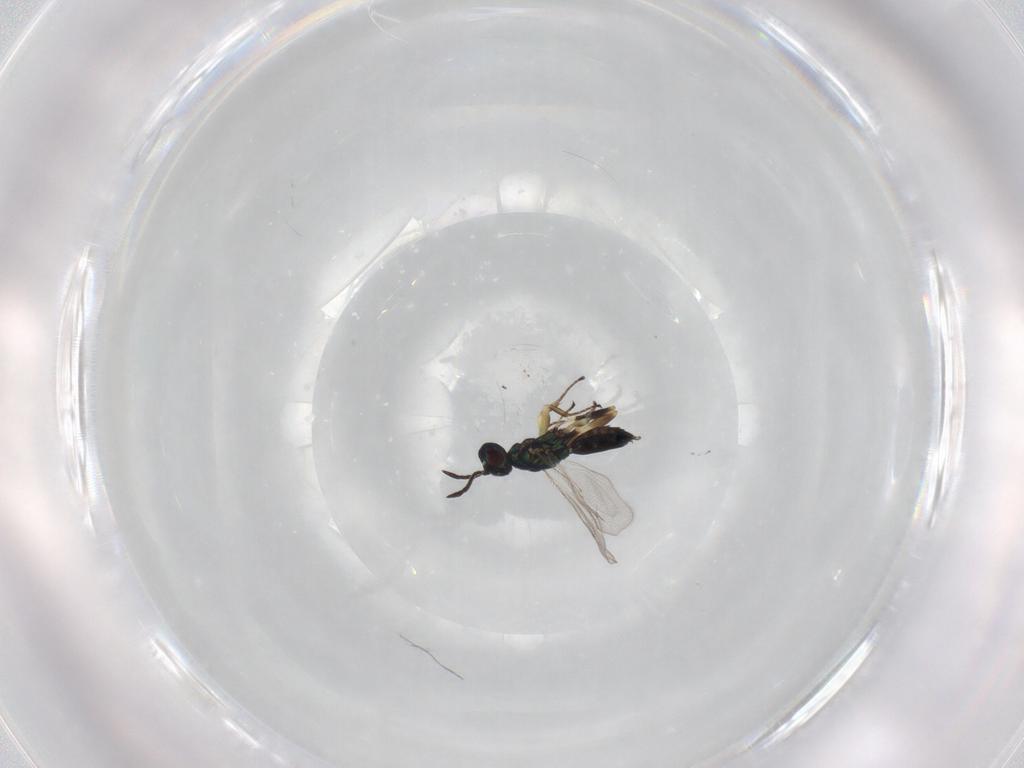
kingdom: Animalia
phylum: Arthropoda
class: Insecta
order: Hymenoptera
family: Eupelmidae
